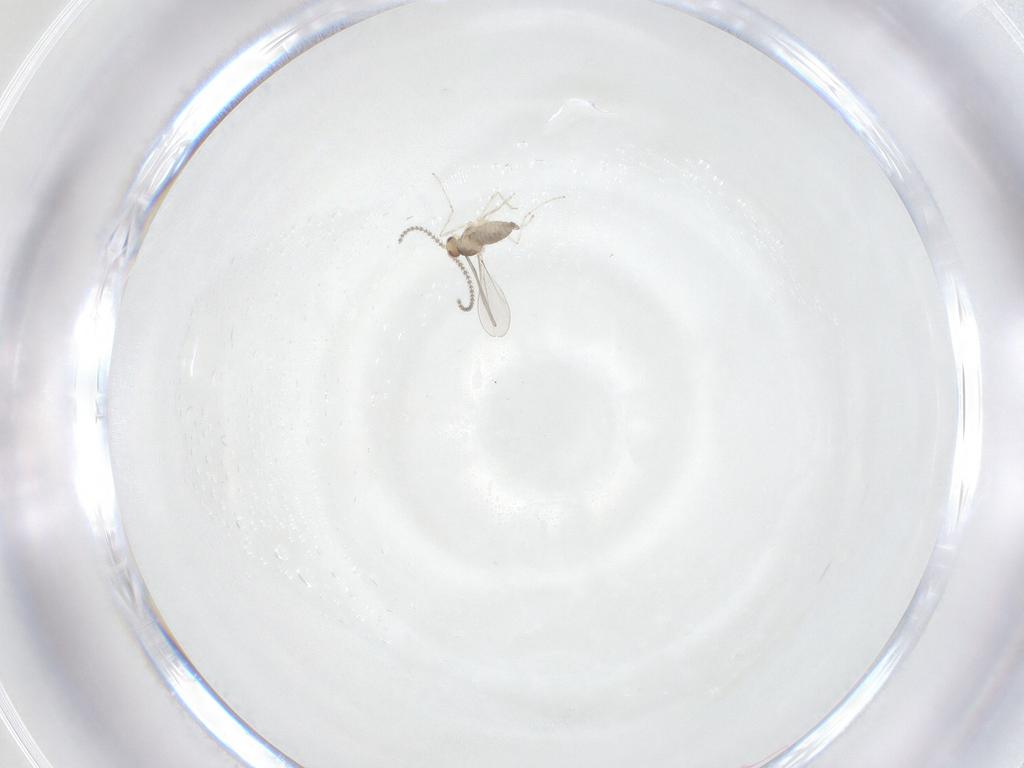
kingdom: Animalia
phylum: Arthropoda
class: Insecta
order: Diptera
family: Cecidomyiidae
